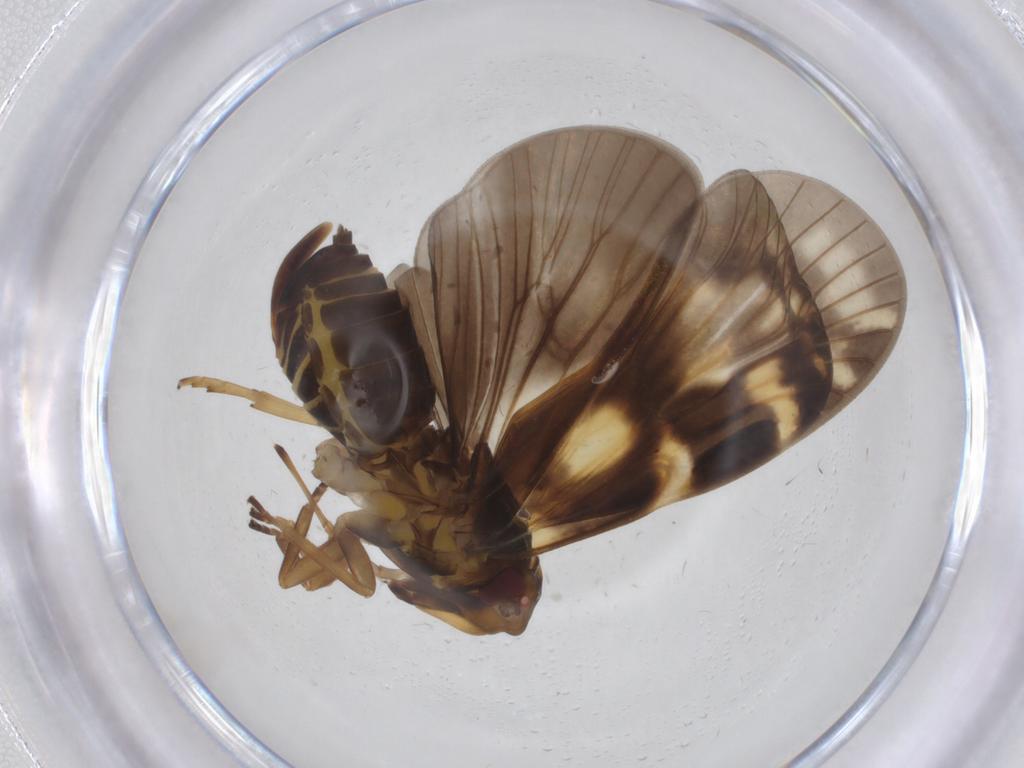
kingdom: Animalia
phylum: Arthropoda
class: Insecta
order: Hemiptera
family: Cixiidae
